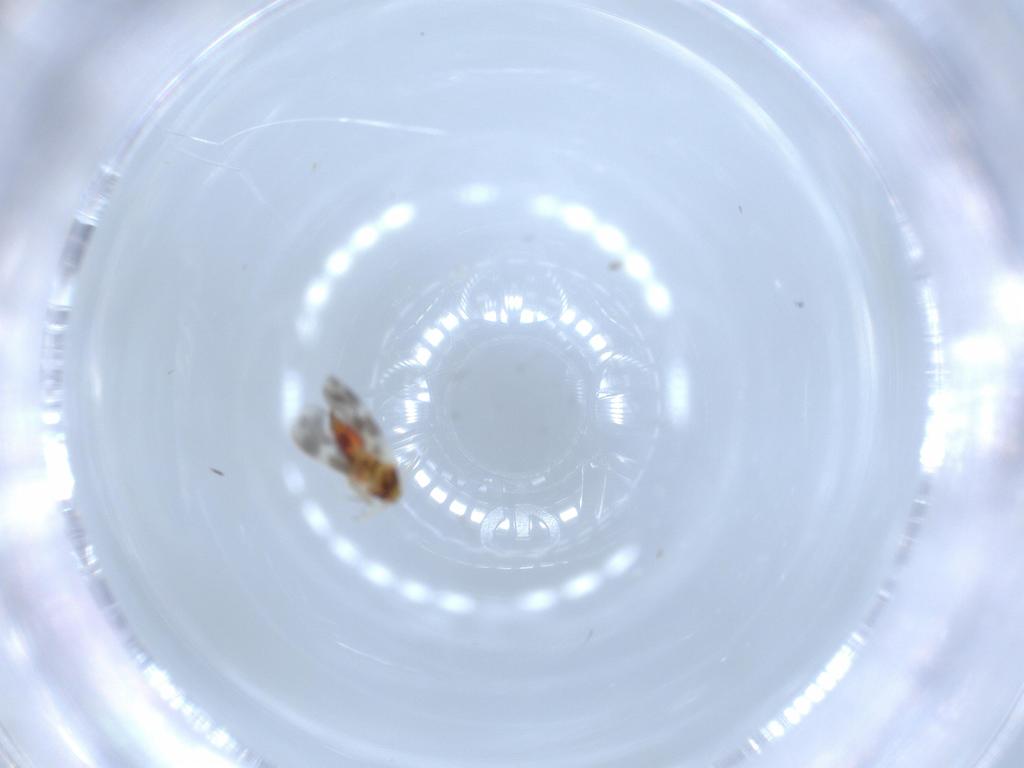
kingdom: Animalia
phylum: Arthropoda
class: Insecta
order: Hemiptera
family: Aleyrodidae
